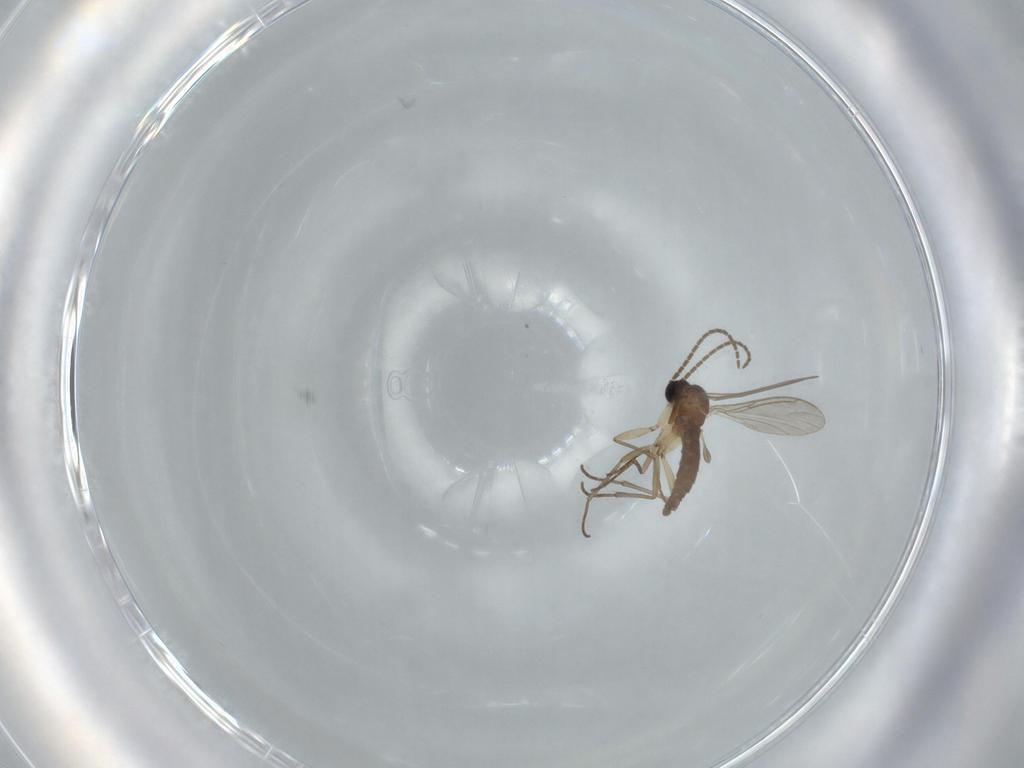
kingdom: Animalia
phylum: Arthropoda
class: Insecta
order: Diptera
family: Sciaridae
